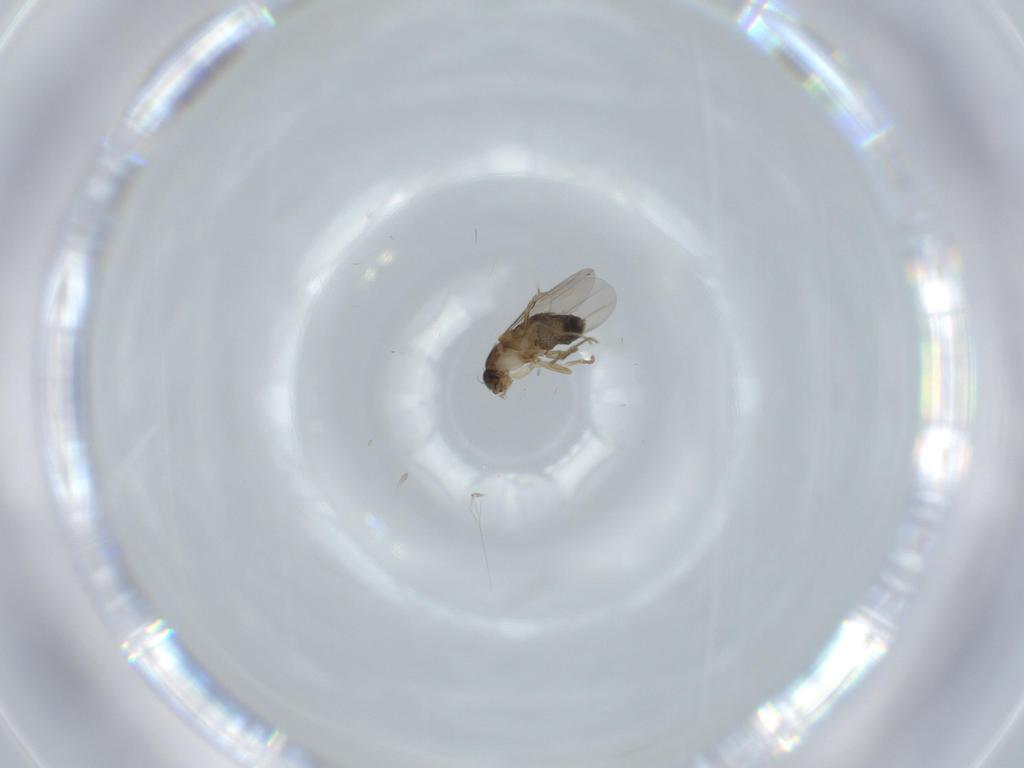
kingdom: Animalia
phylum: Arthropoda
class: Insecta
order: Diptera
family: Phoridae
